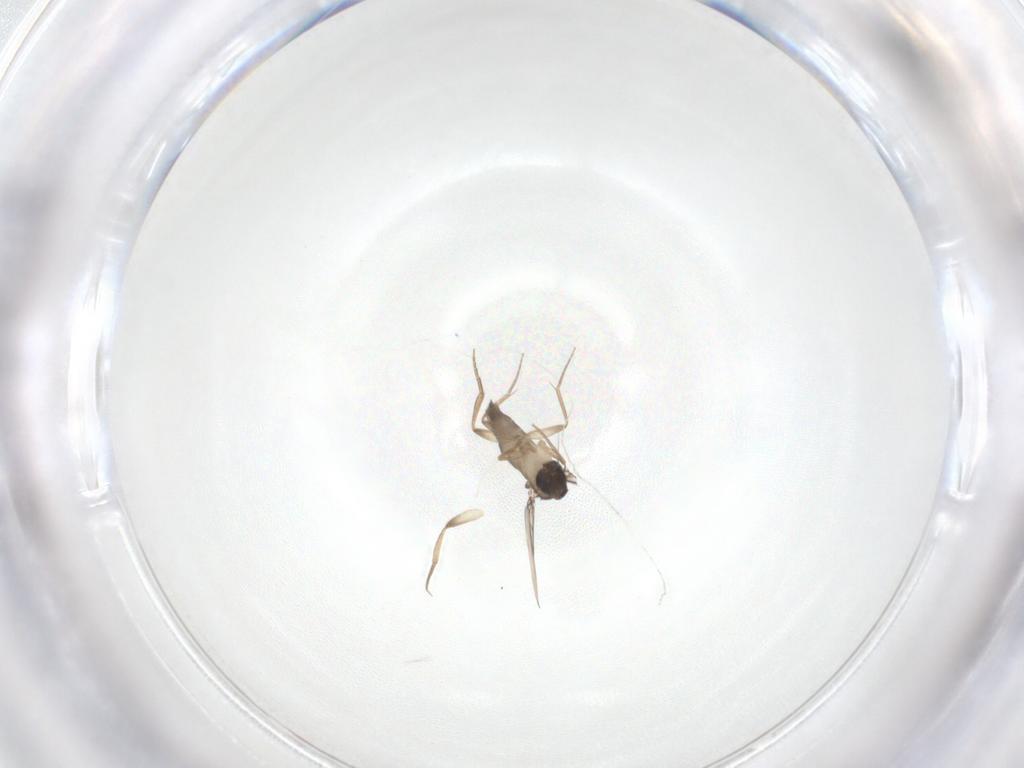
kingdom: Animalia
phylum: Arthropoda
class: Insecta
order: Diptera
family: Phoridae
